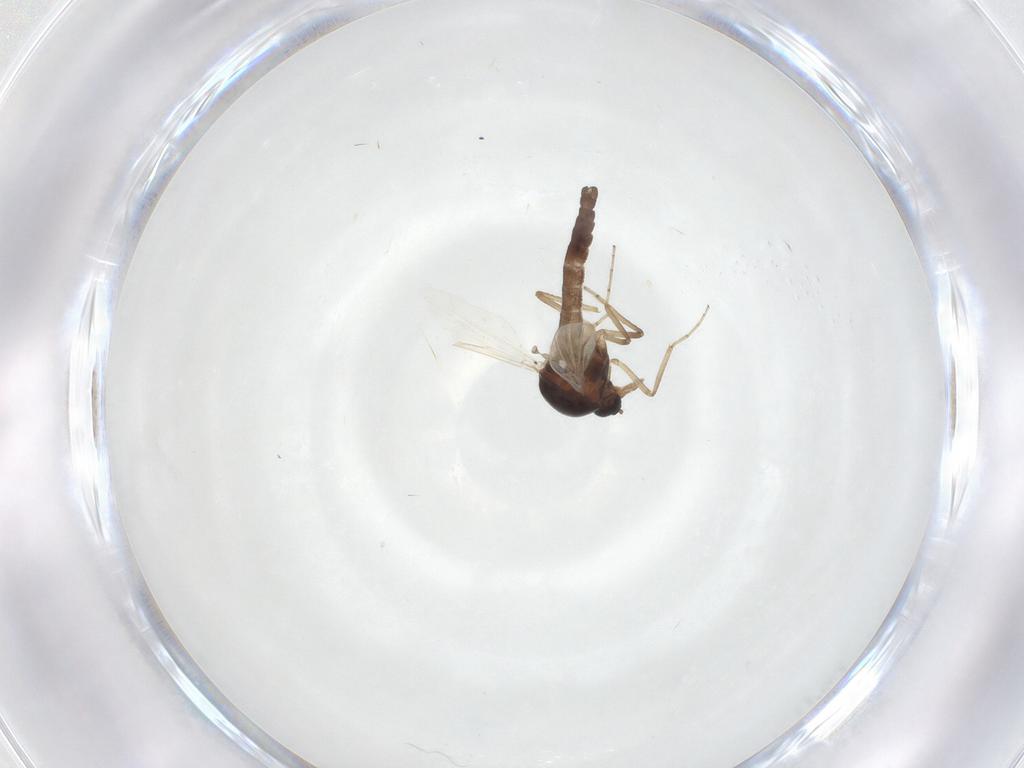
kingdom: Animalia
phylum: Arthropoda
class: Insecta
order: Diptera
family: Ceratopogonidae
